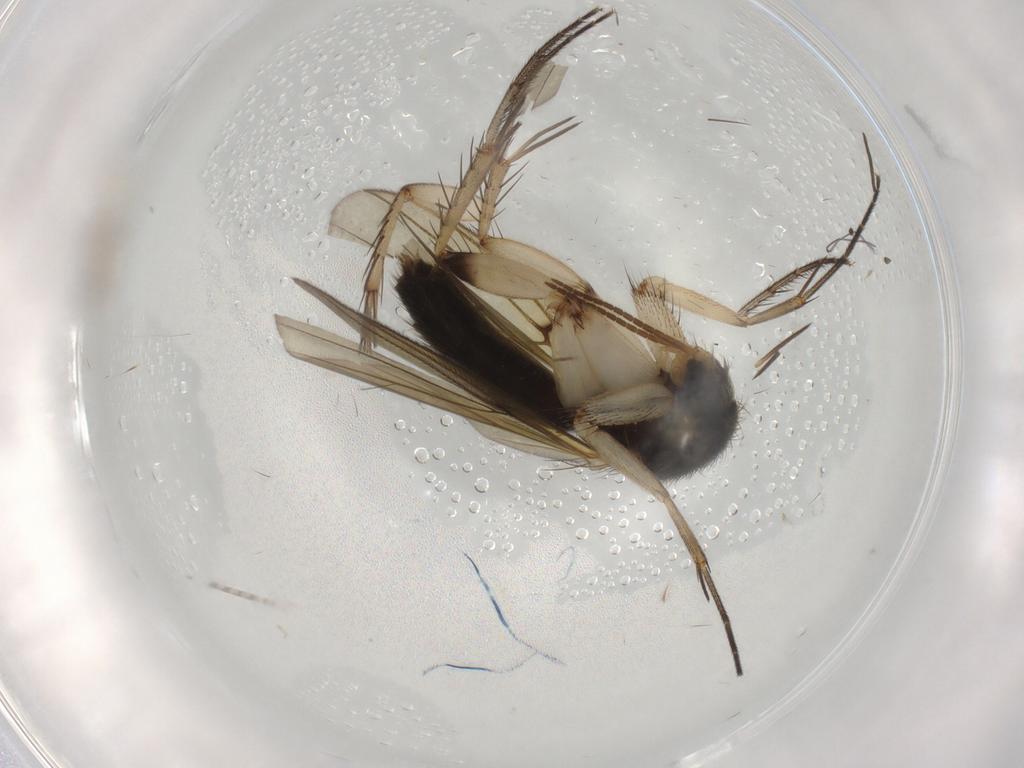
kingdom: Animalia
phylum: Arthropoda
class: Insecta
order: Diptera
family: Limoniidae
